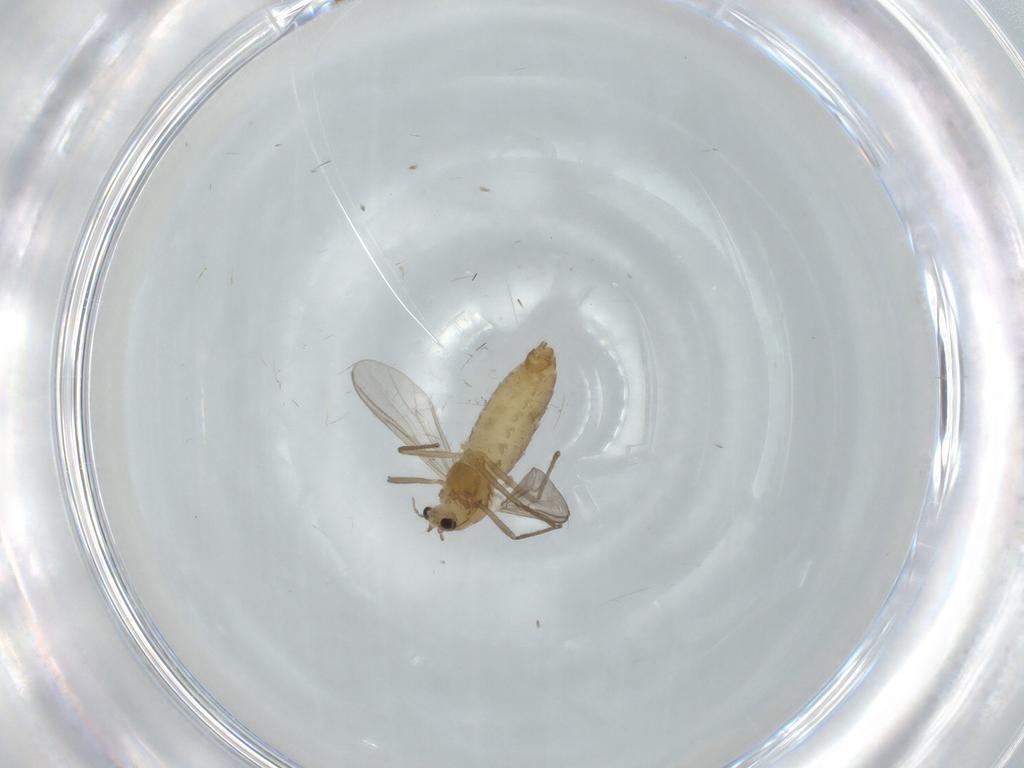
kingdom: Animalia
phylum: Arthropoda
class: Insecta
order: Diptera
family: Chironomidae
